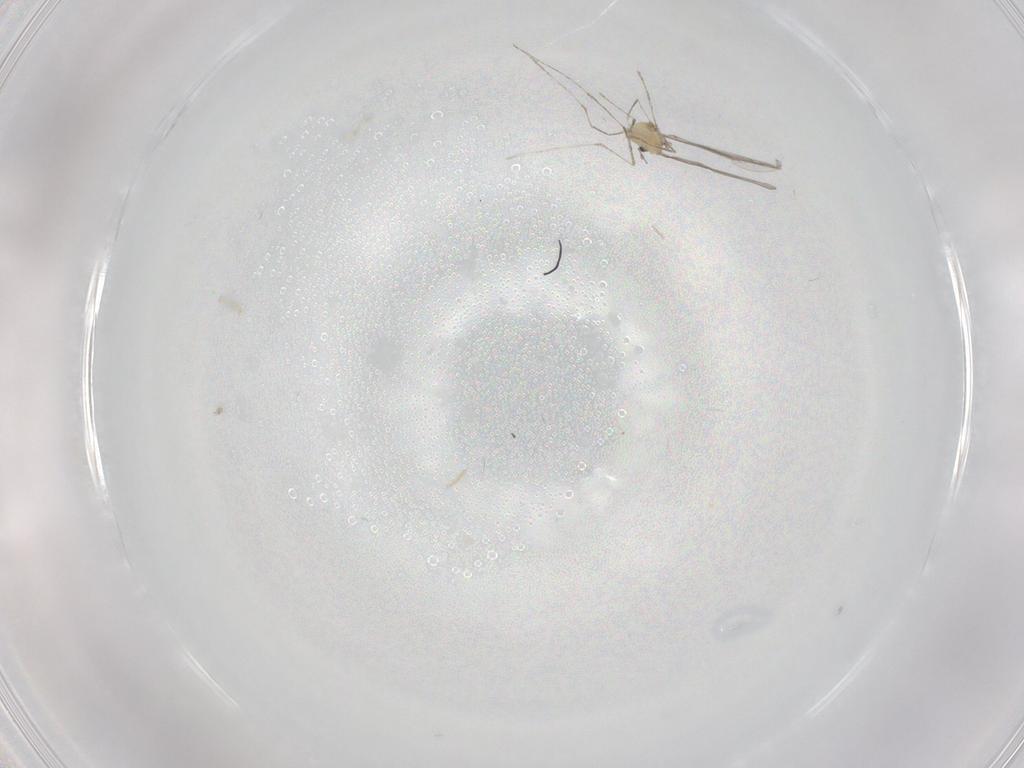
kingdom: Animalia
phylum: Arthropoda
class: Insecta
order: Diptera
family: Cecidomyiidae
